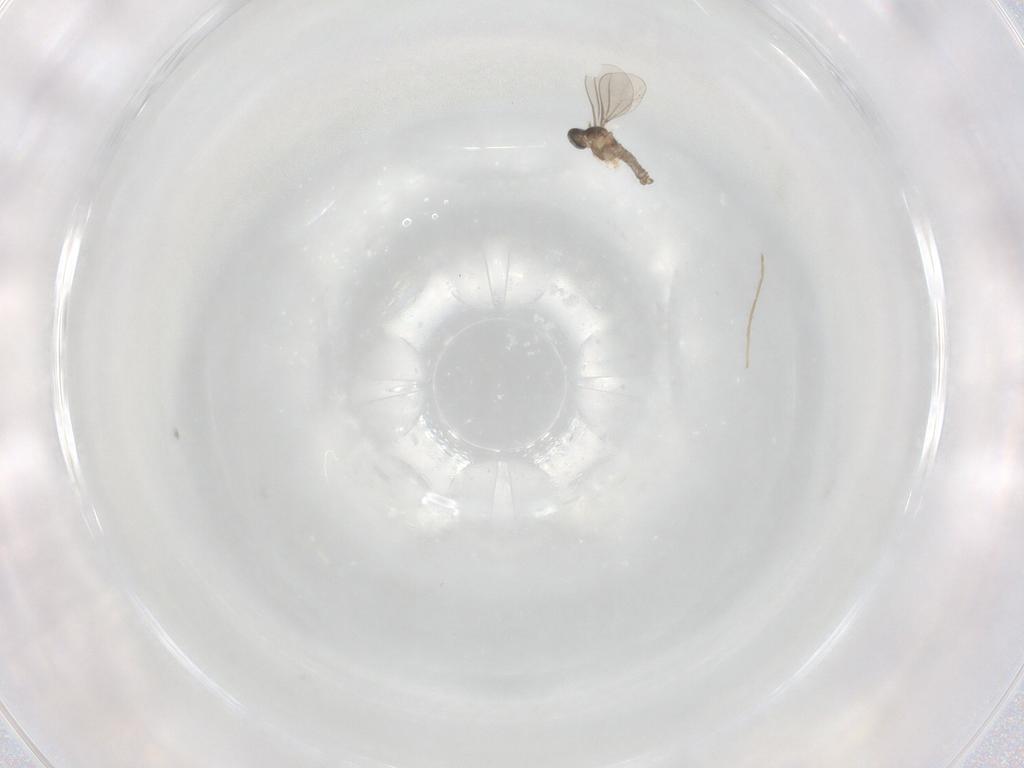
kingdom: Animalia
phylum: Arthropoda
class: Insecta
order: Diptera
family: Cecidomyiidae
